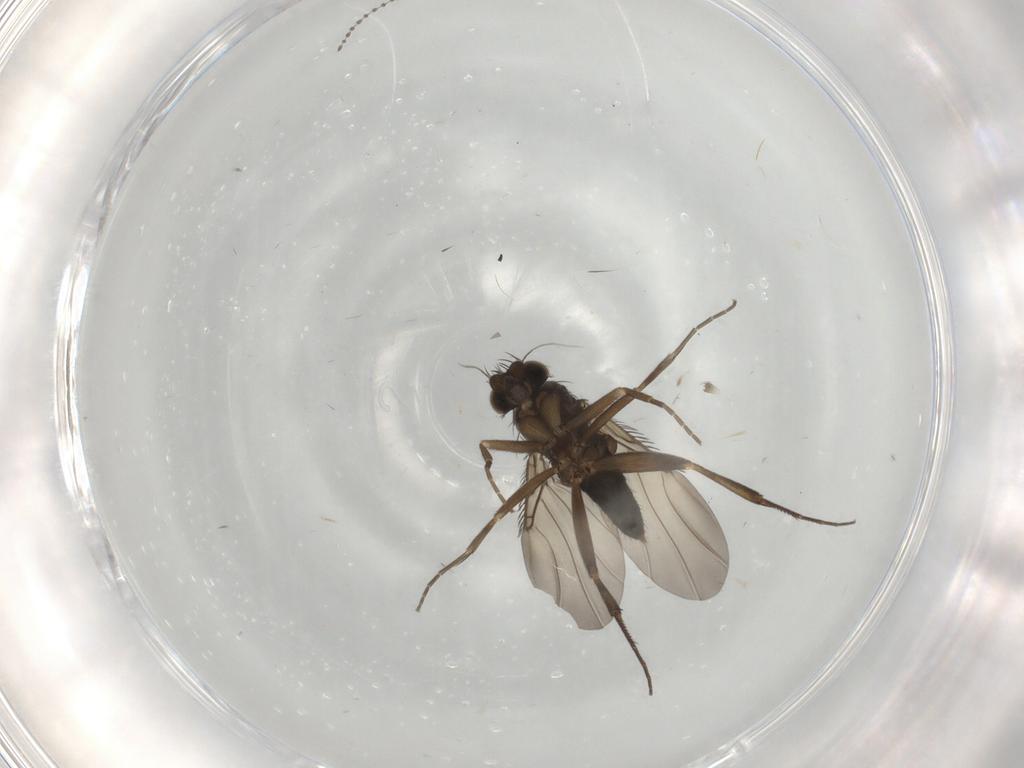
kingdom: Animalia
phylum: Arthropoda
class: Insecta
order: Diptera
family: Phoridae
